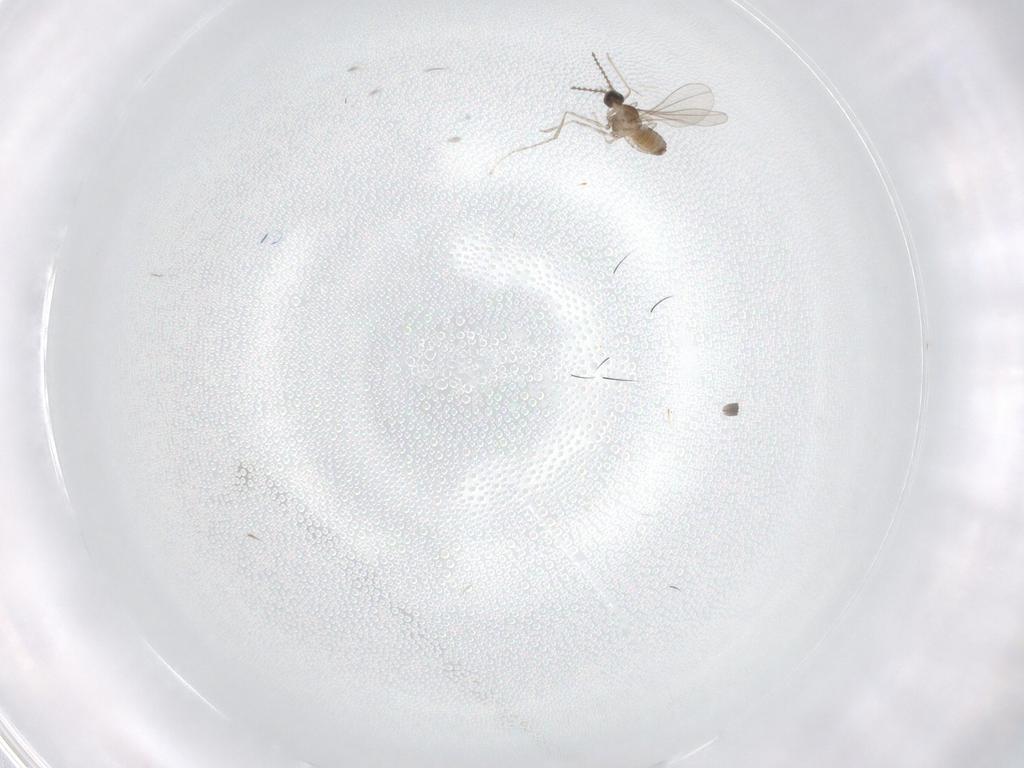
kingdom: Animalia
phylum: Arthropoda
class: Insecta
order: Diptera
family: Cecidomyiidae
